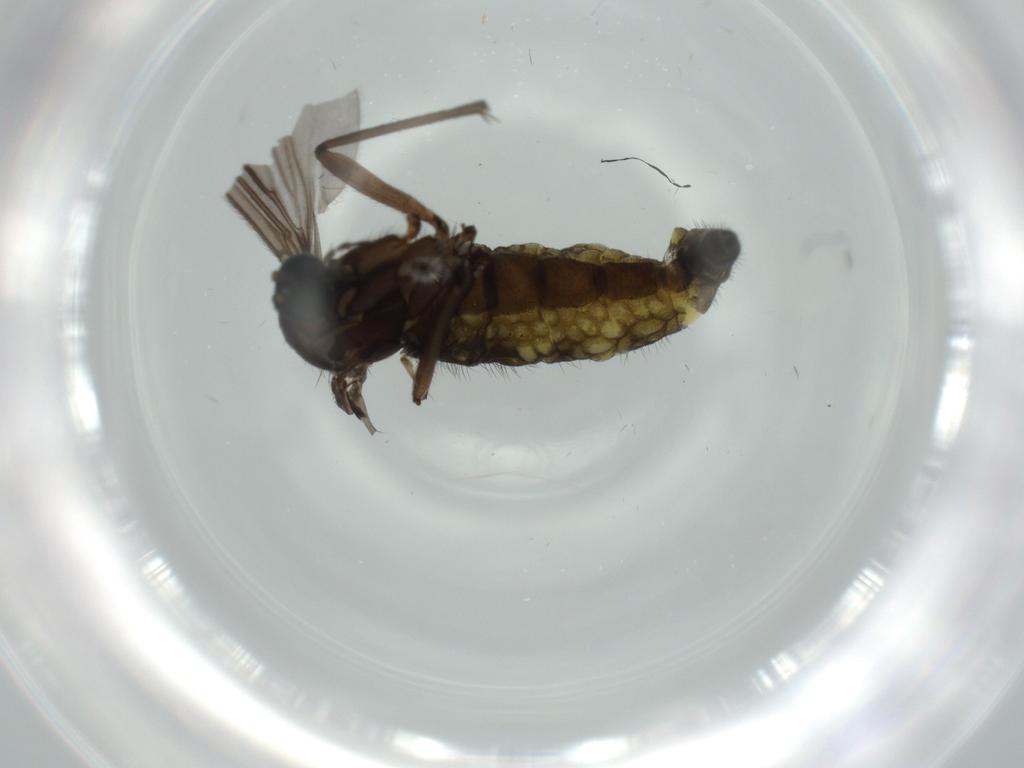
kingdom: Animalia
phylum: Arthropoda
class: Insecta
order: Diptera
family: Sciaridae
